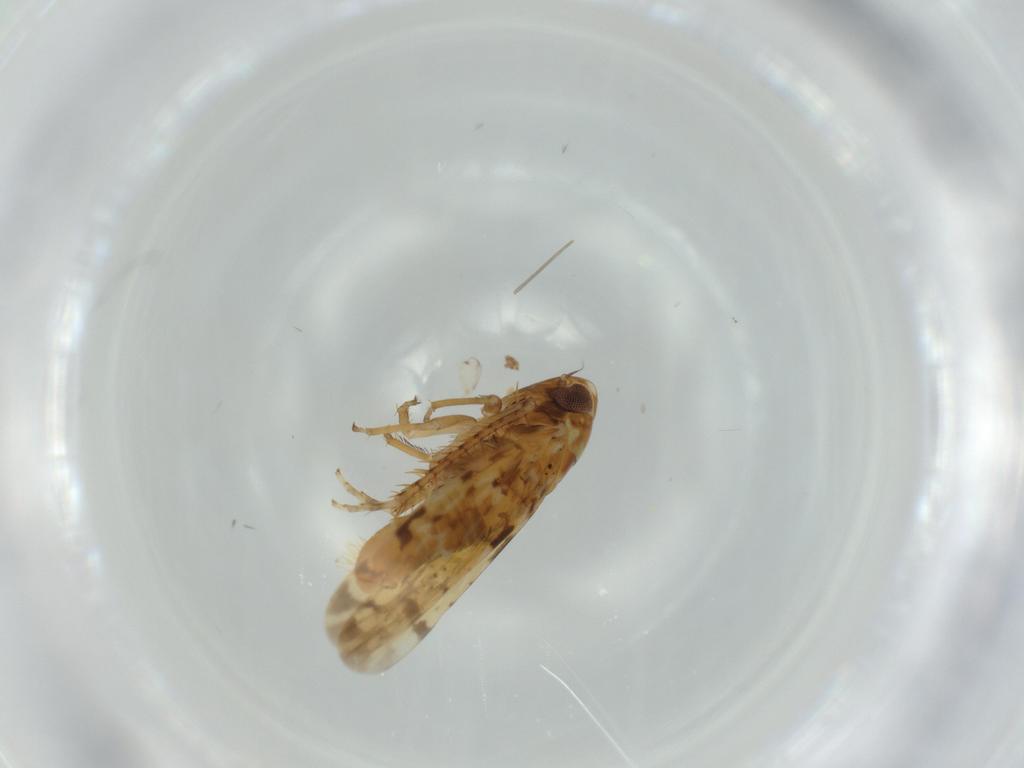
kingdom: Animalia
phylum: Arthropoda
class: Insecta
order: Hemiptera
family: Cicadellidae
